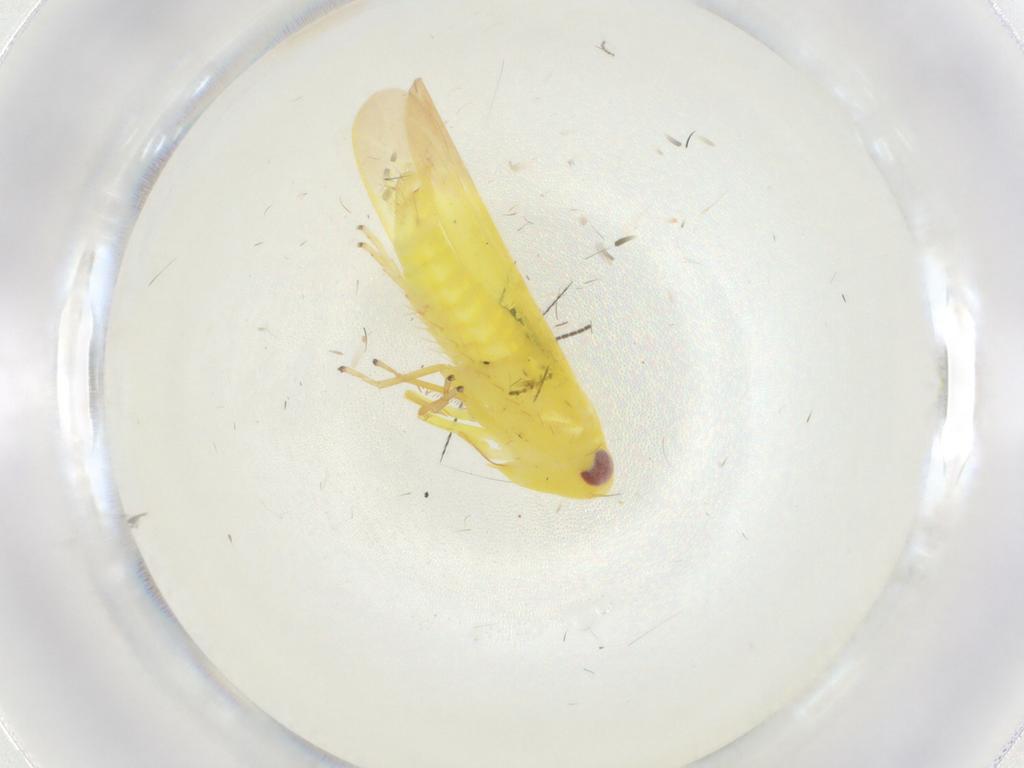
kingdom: Animalia
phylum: Arthropoda
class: Insecta
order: Hemiptera
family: Cicadellidae
